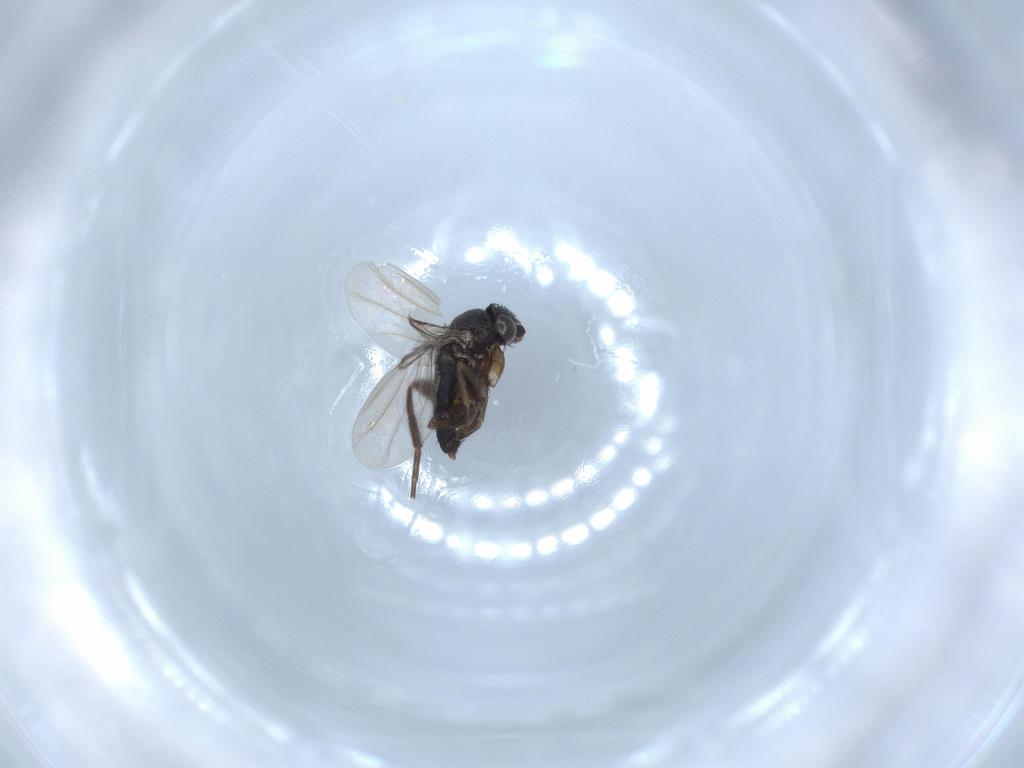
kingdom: Animalia
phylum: Arthropoda
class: Insecta
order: Diptera
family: Phoridae
